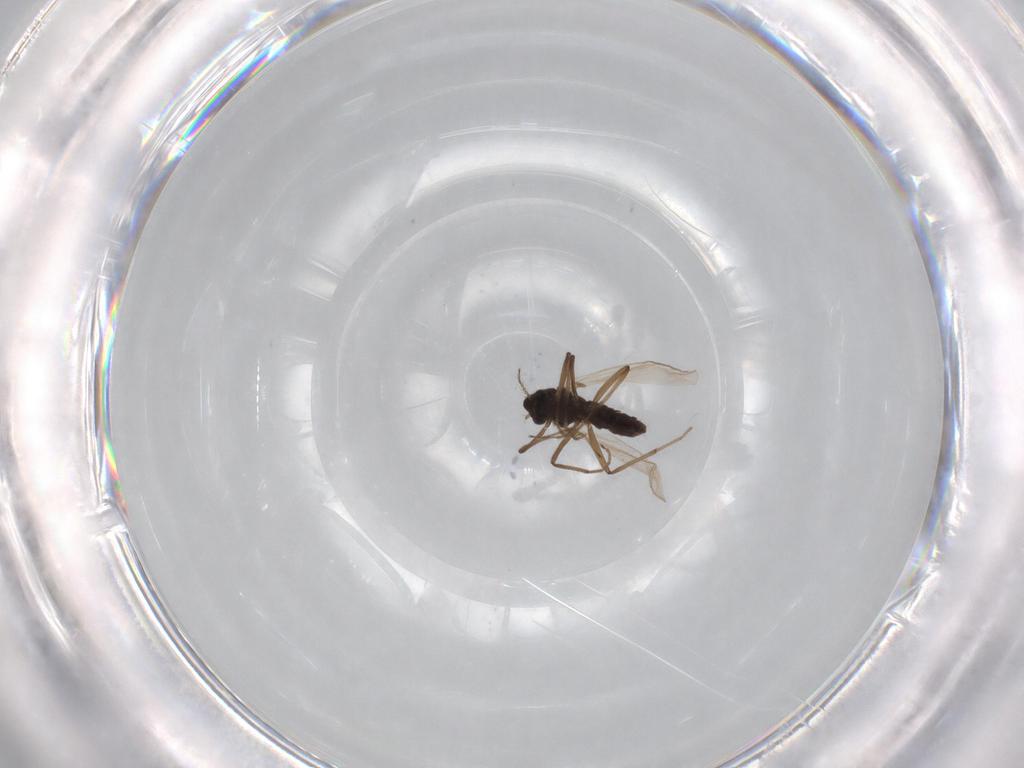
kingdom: Animalia
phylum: Arthropoda
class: Insecta
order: Diptera
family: Chironomidae
